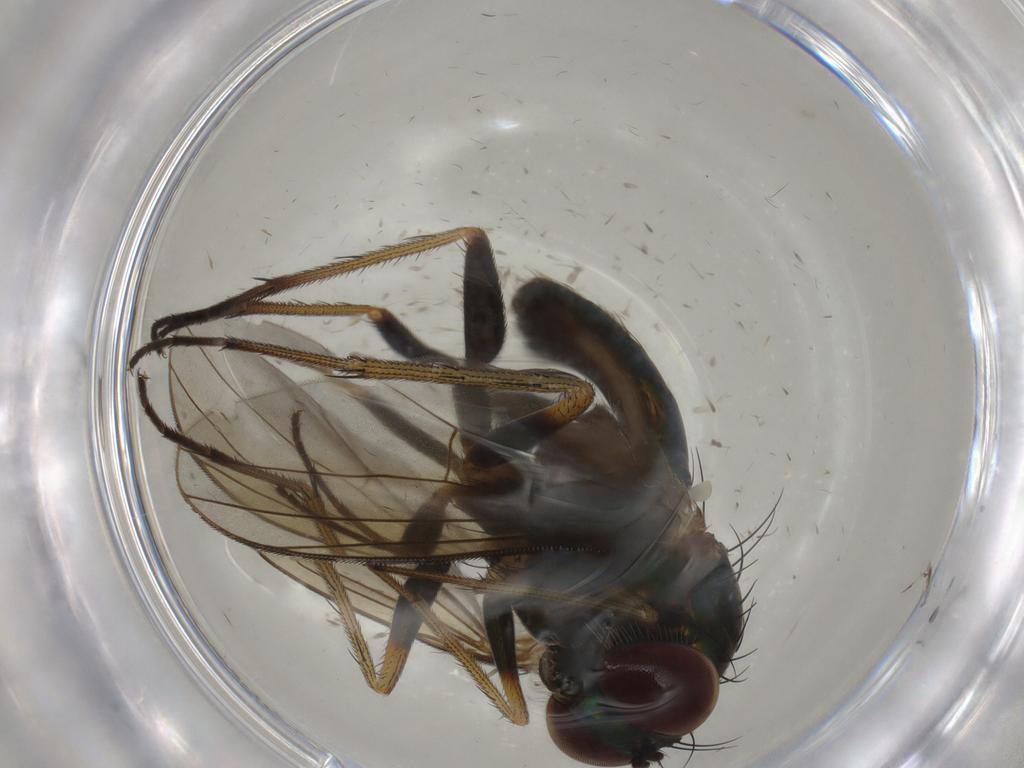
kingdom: Animalia
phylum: Arthropoda
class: Insecta
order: Diptera
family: Dolichopodidae
